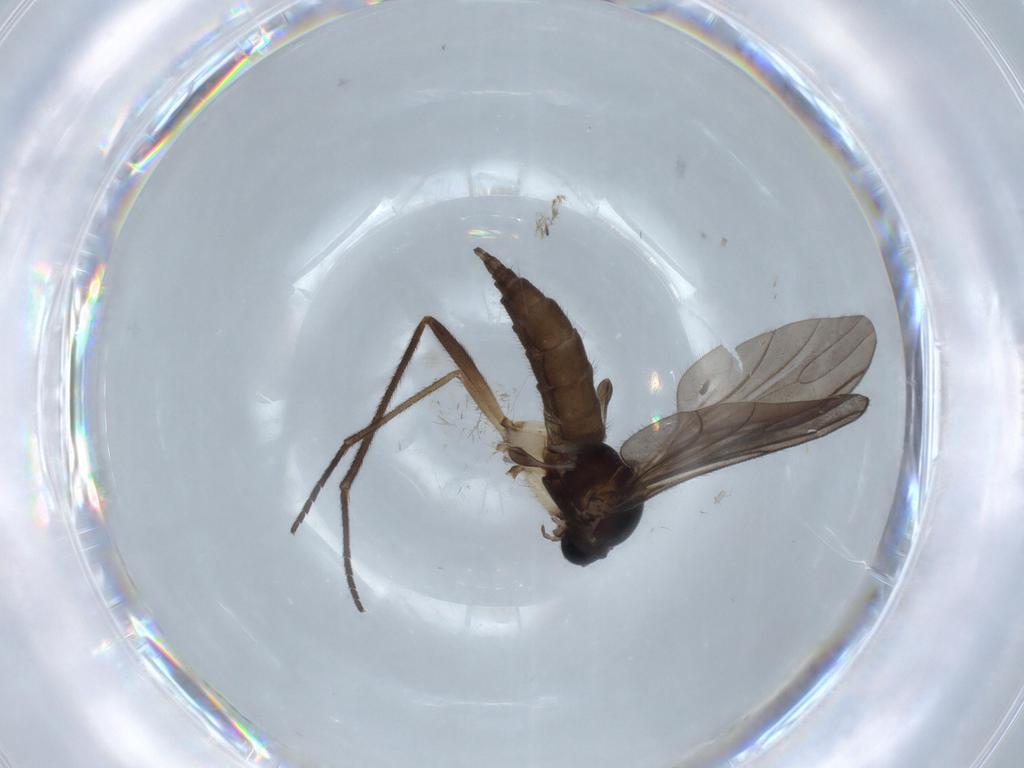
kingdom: Animalia
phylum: Arthropoda
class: Insecta
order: Diptera
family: Sciaridae
